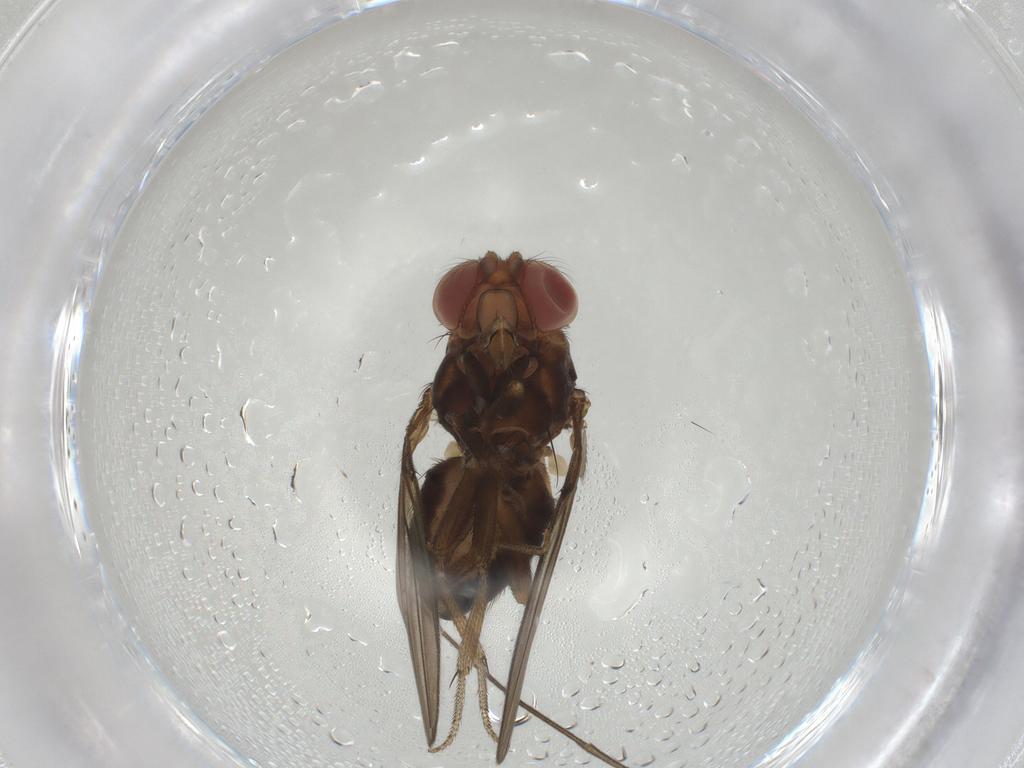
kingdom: Animalia
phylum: Arthropoda
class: Insecta
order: Diptera
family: Drosophilidae
